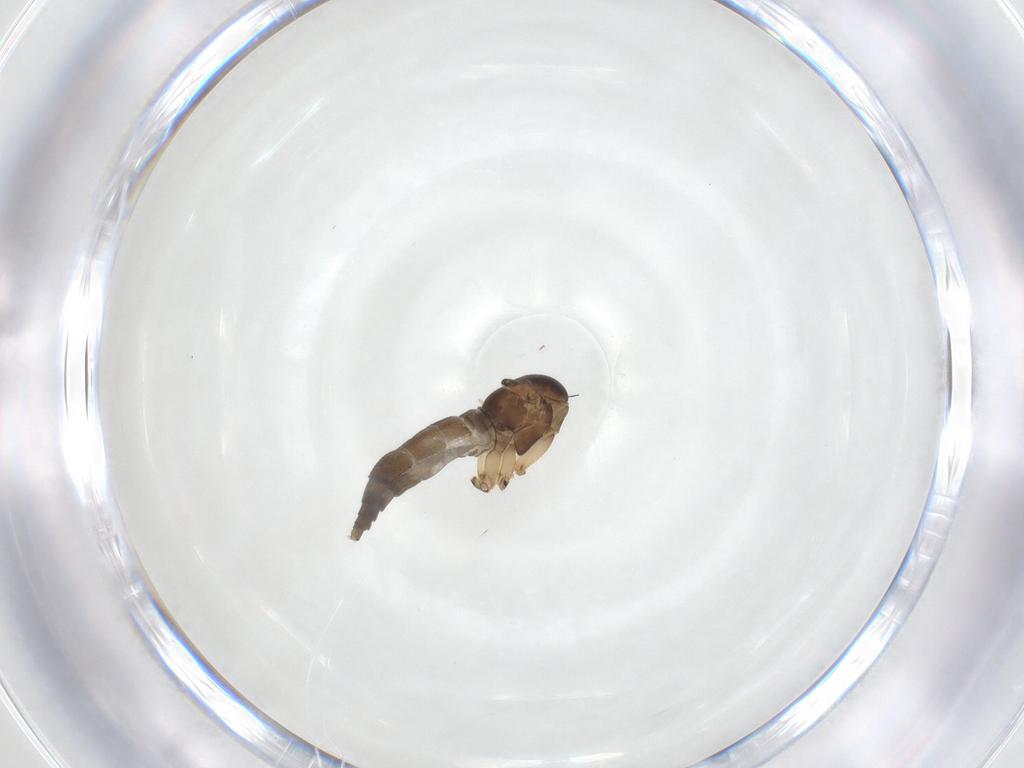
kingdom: Animalia
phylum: Arthropoda
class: Insecta
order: Diptera
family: Sciaridae
